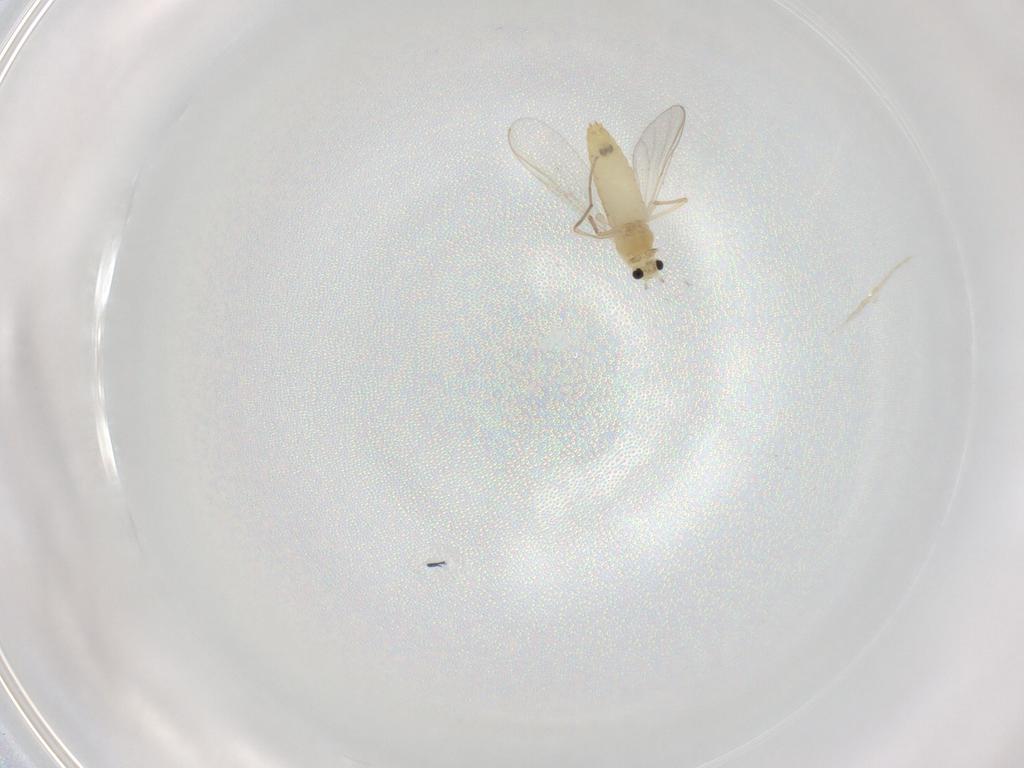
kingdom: Animalia
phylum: Arthropoda
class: Insecta
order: Diptera
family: Chironomidae
